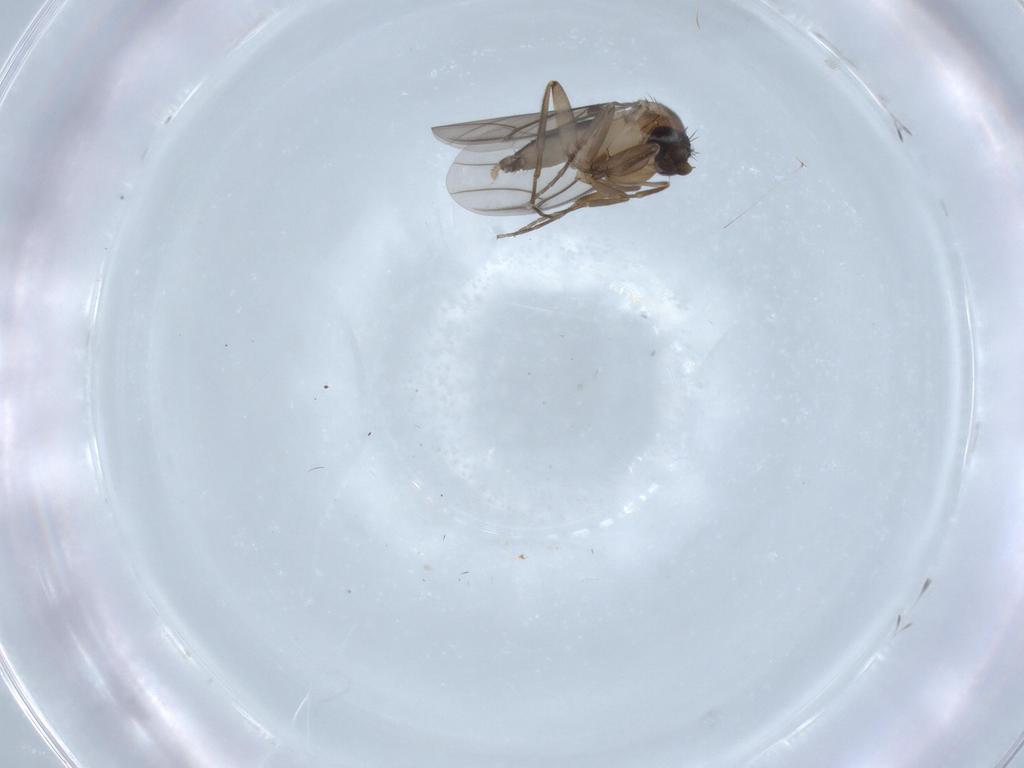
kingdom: Animalia
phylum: Arthropoda
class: Insecta
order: Diptera
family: Phoridae
